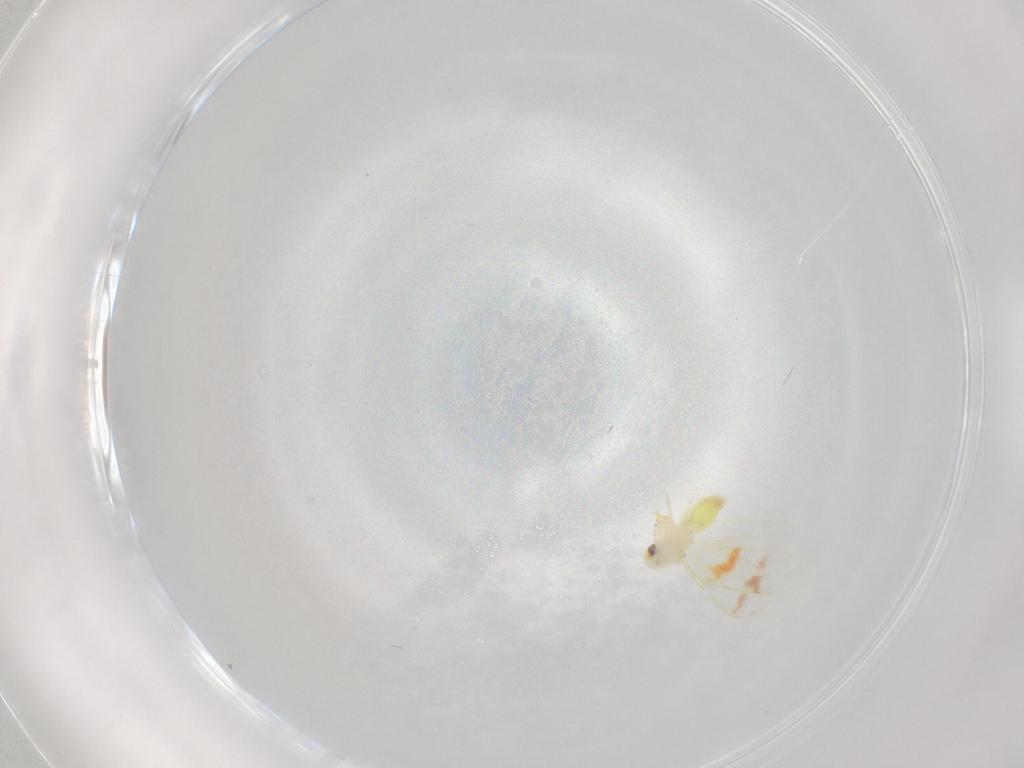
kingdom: Animalia
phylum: Arthropoda
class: Insecta
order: Hemiptera
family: Aleyrodidae
